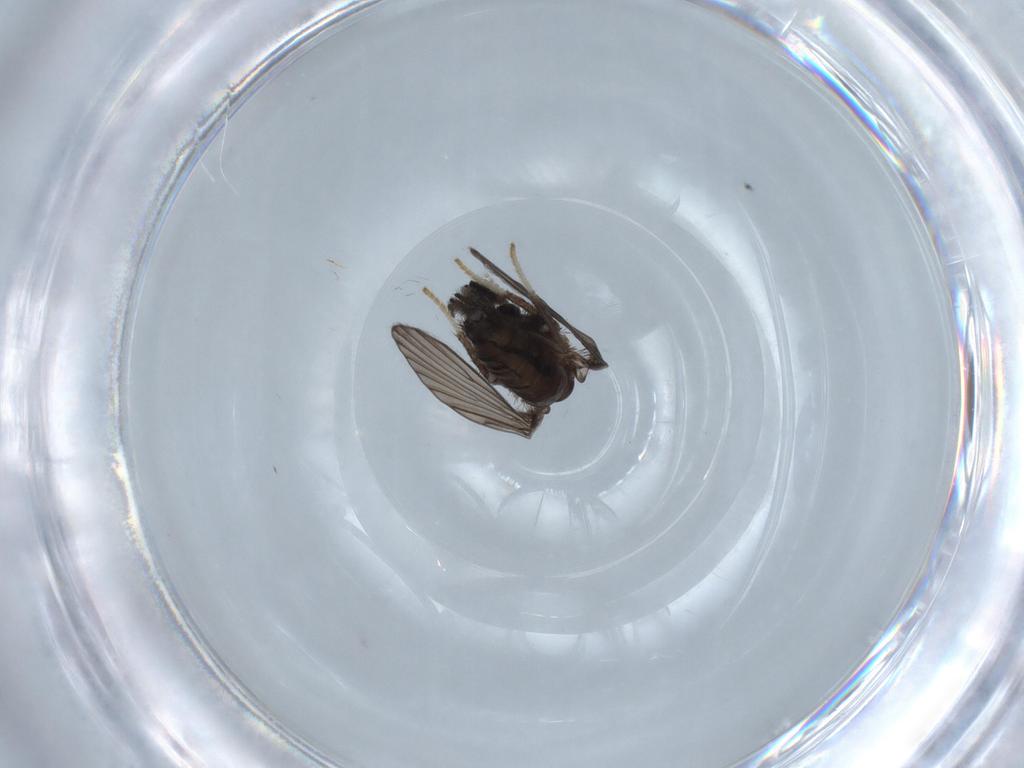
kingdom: Animalia
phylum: Arthropoda
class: Insecta
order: Diptera
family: Psychodidae
